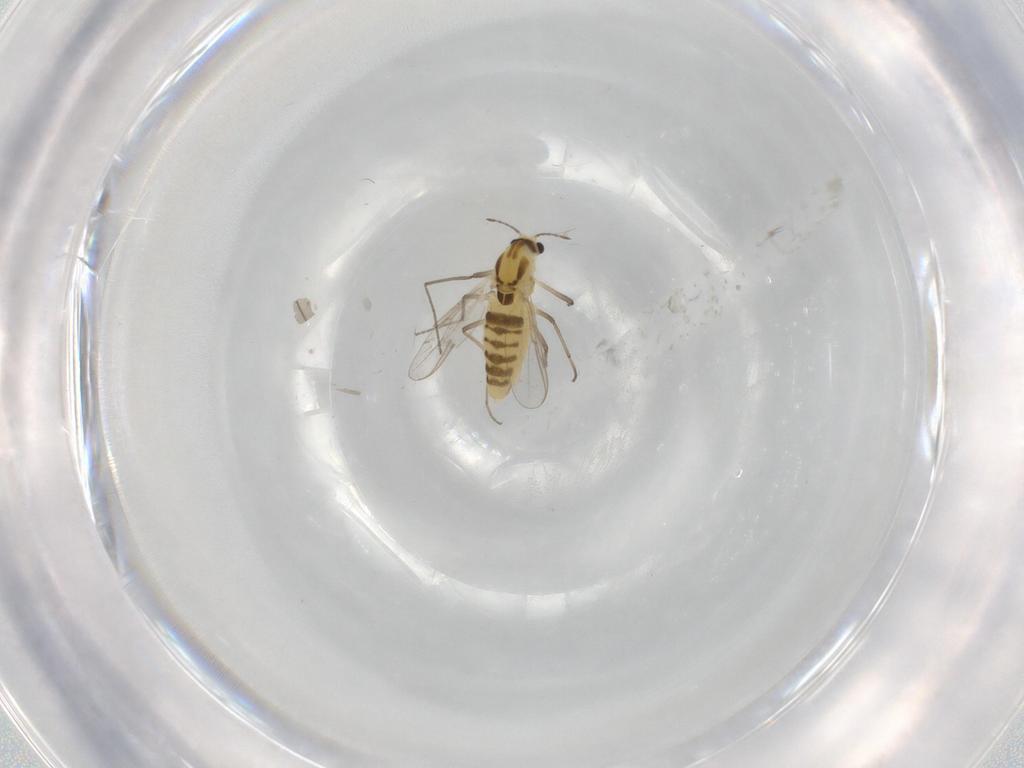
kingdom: Animalia
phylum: Arthropoda
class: Insecta
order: Diptera
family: Chironomidae
